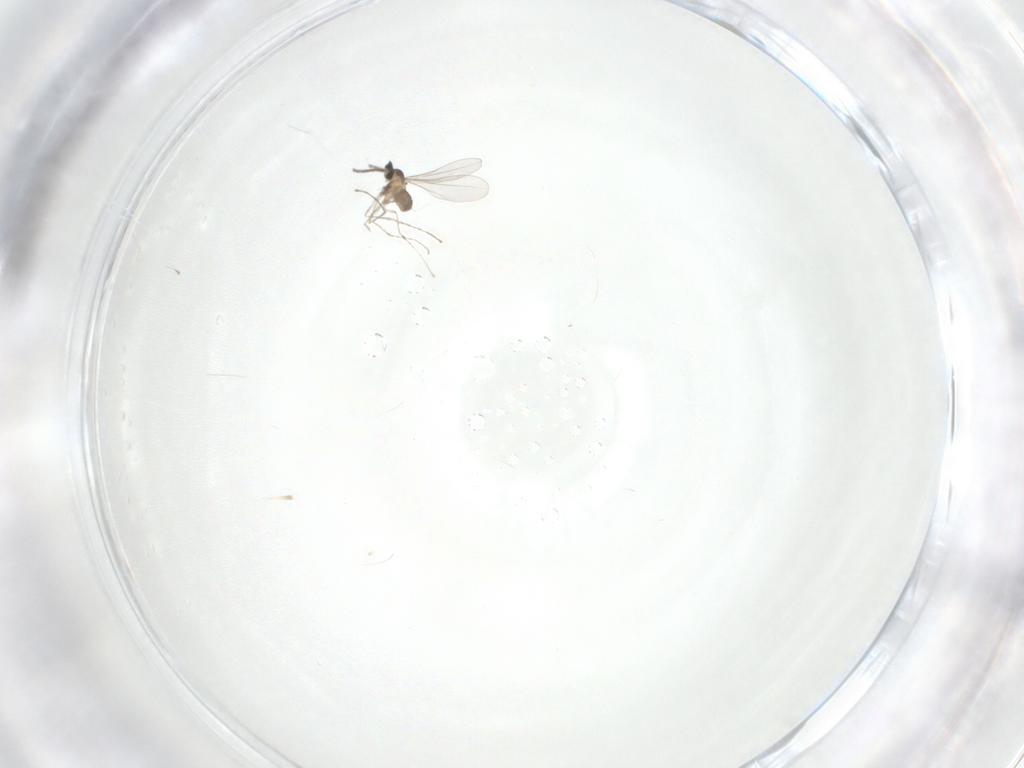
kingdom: Animalia
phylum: Arthropoda
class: Insecta
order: Diptera
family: Cecidomyiidae
